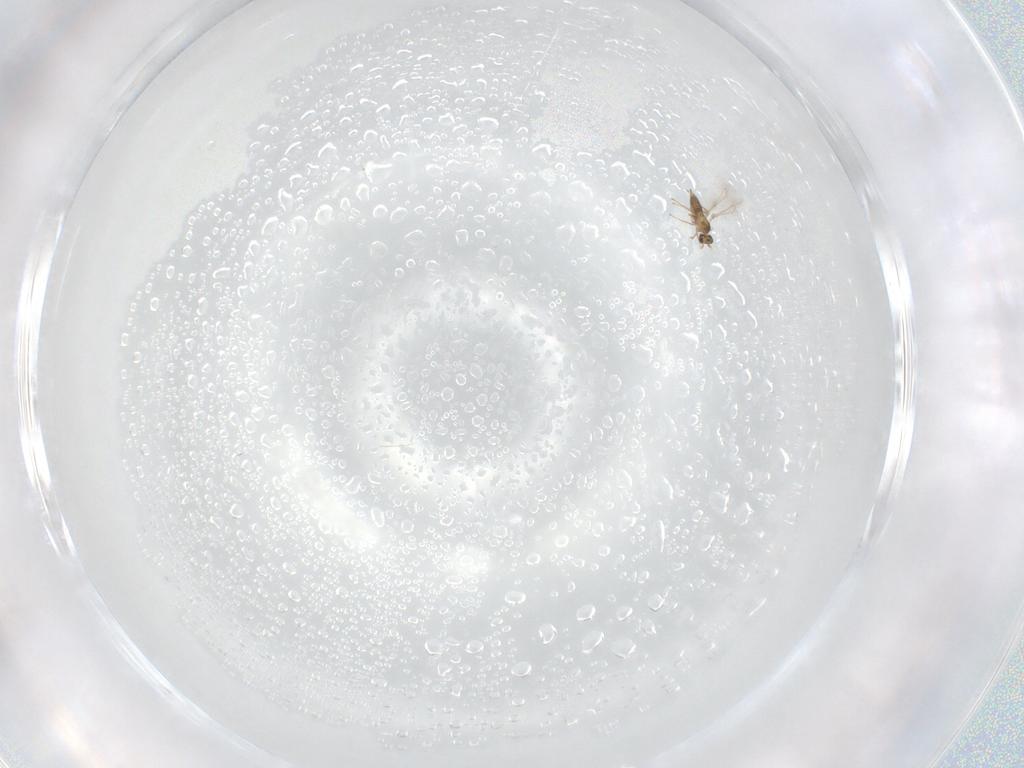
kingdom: Animalia
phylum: Arthropoda
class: Insecta
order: Hymenoptera
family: Mymaridae
